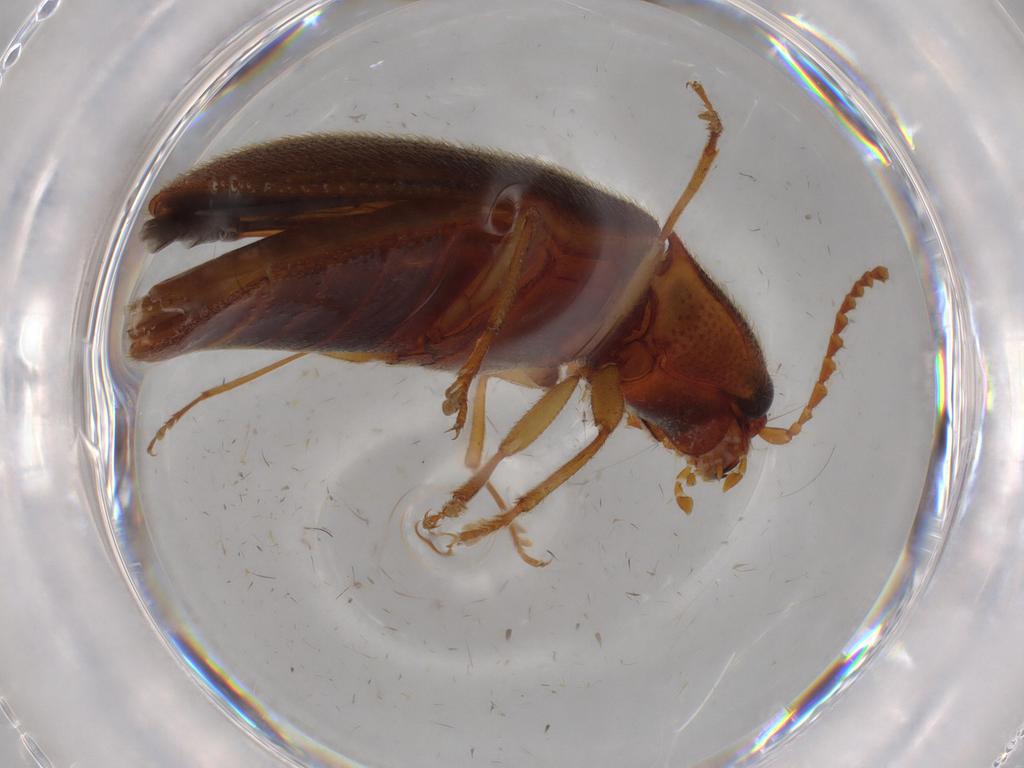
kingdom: Animalia
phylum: Arthropoda
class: Insecta
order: Coleoptera
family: Elateridae
